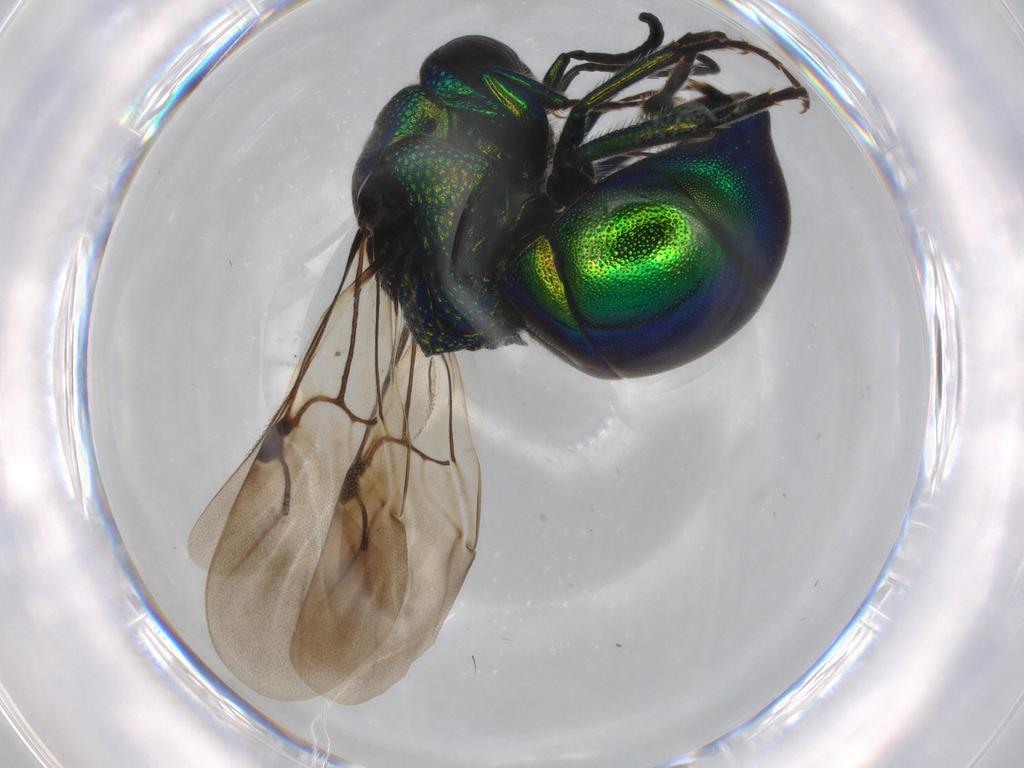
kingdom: Animalia
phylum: Arthropoda
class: Insecta
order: Hymenoptera
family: Chrysididae
